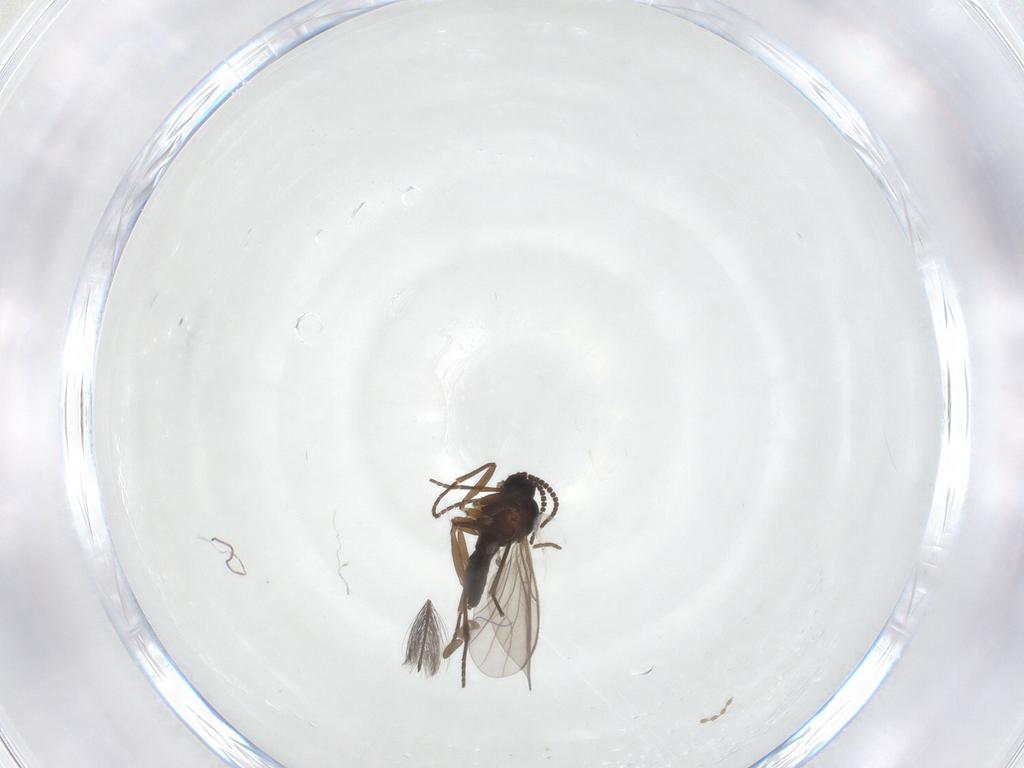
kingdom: Animalia
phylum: Arthropoda
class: Insecta
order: Diptera
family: Sciaridae
